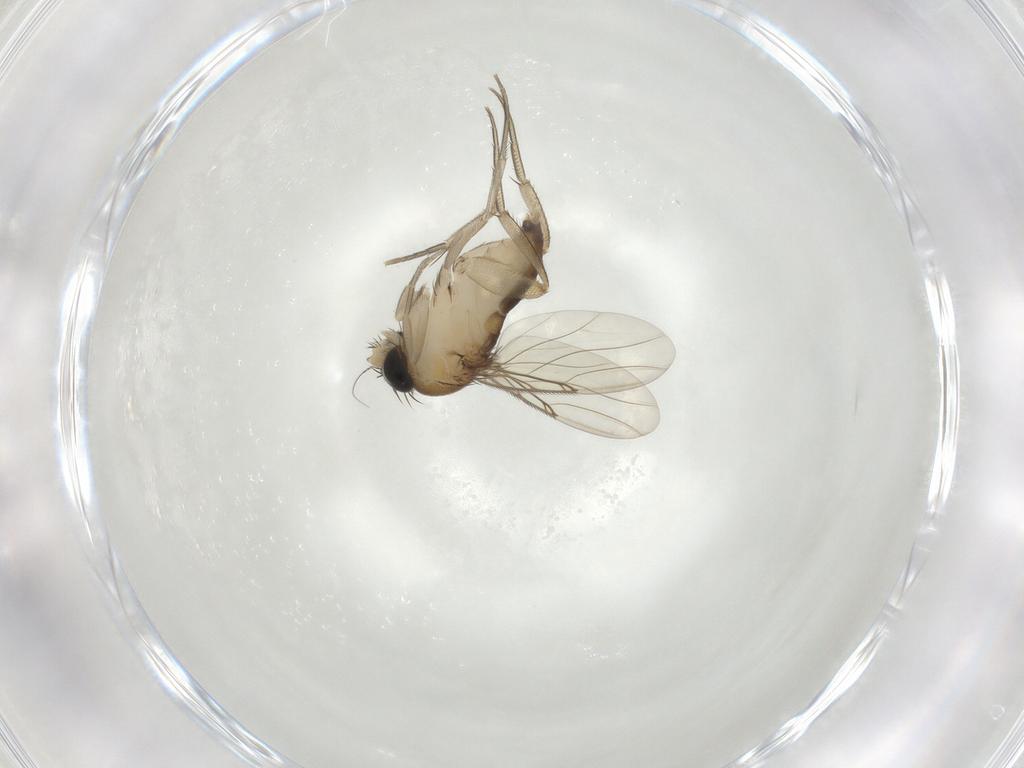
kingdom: Animalia
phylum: Arthropoda
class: Insecta
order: Diptera
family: Phoridae
